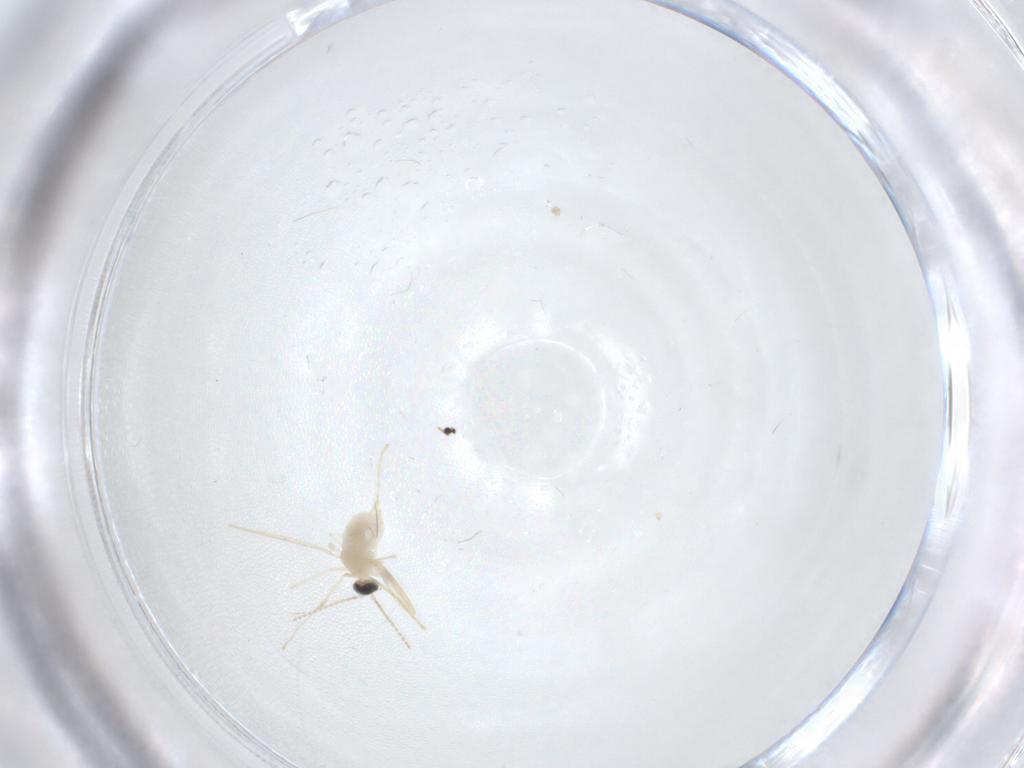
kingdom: Animalia
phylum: Arthropoda
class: Insecta
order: Diptera
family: Cecidomyiidae
